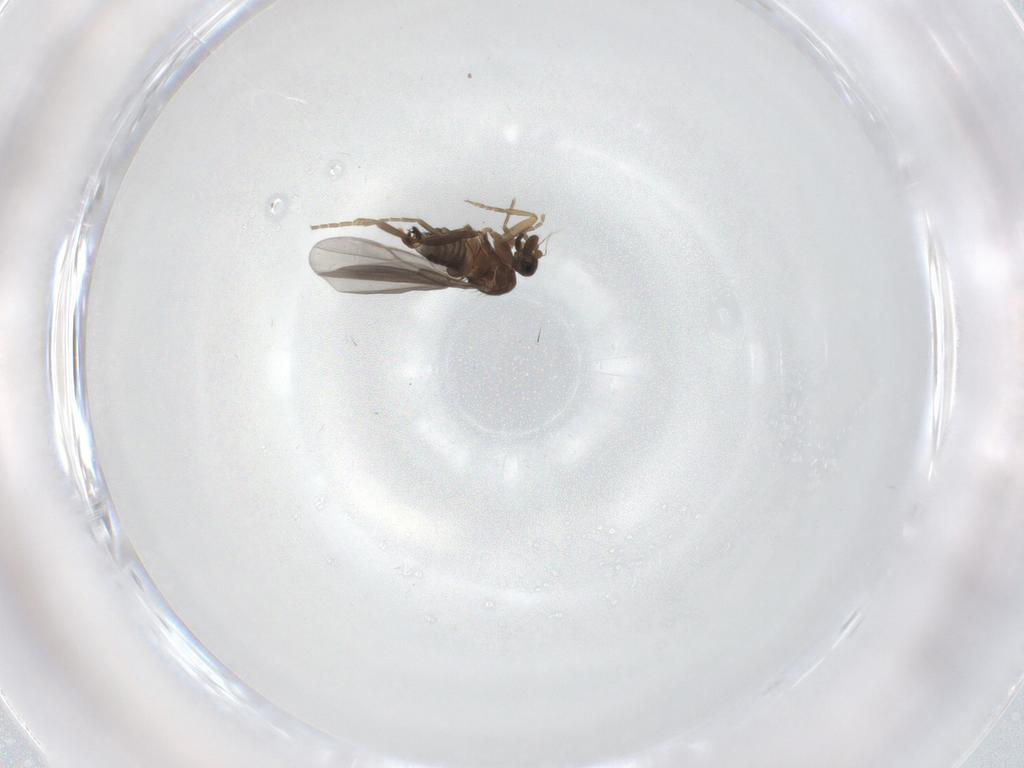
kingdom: Animalia
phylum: Arthropoda
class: Insecta
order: Diptera
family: Phoridae
